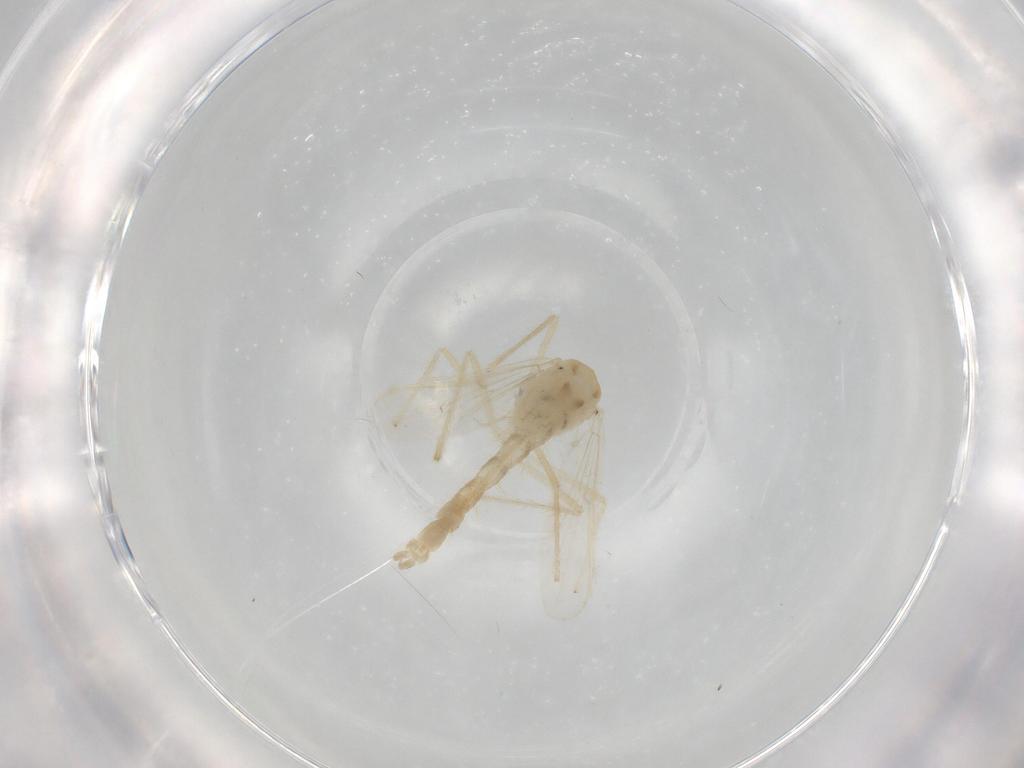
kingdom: Animalia
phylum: Arthropoda
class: Insecta
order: Diptera
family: Chironomidae
